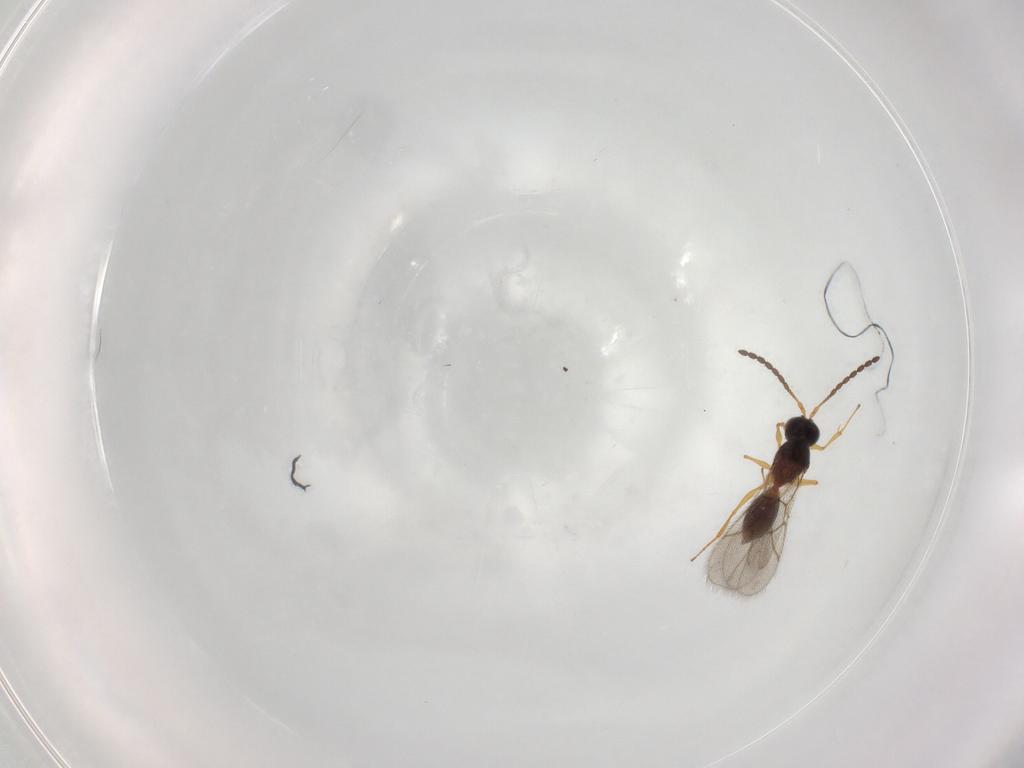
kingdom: Animalia
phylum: Arthropoda
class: Insecta
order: Hymenoptera
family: Figitidae
